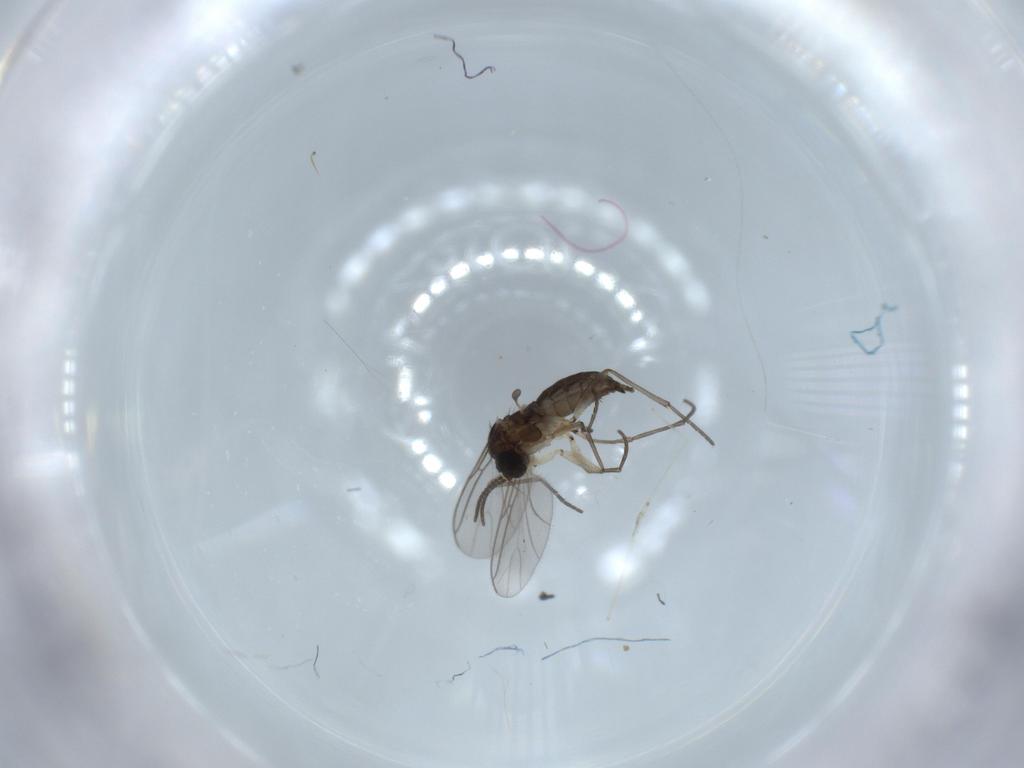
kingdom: Animalia
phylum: Arthropoda
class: Insecta
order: Diptera
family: Sciaridae
